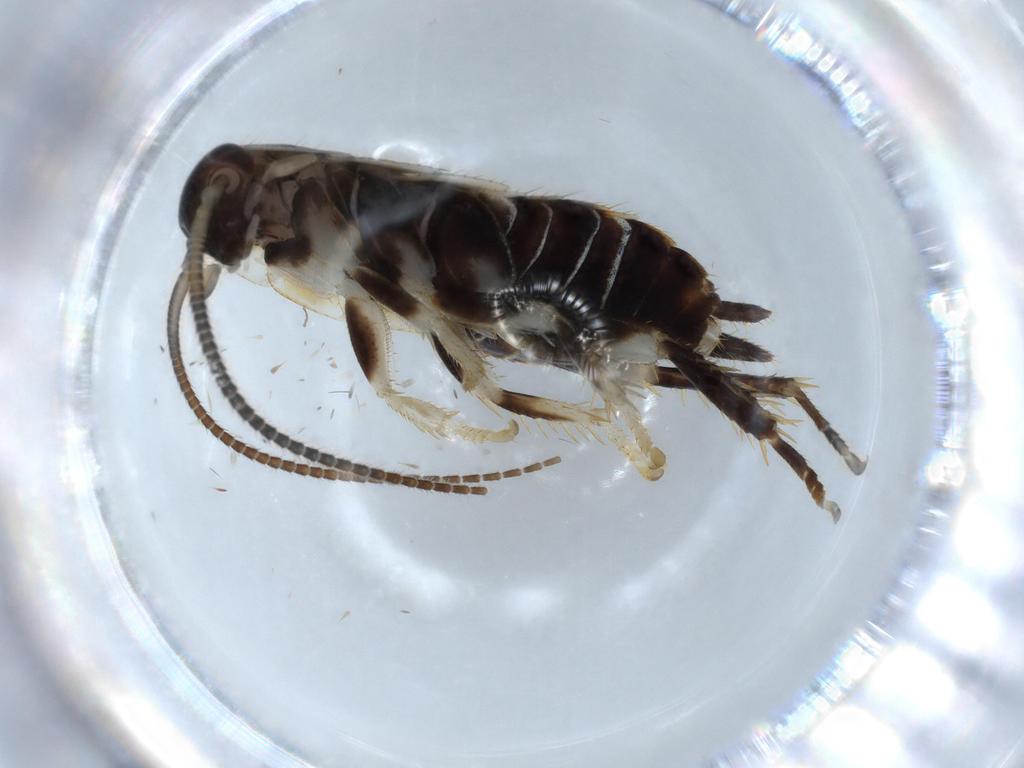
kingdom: Animalia
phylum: Arthropoda
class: Insecta
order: Blattodea
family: Ectobiidae
